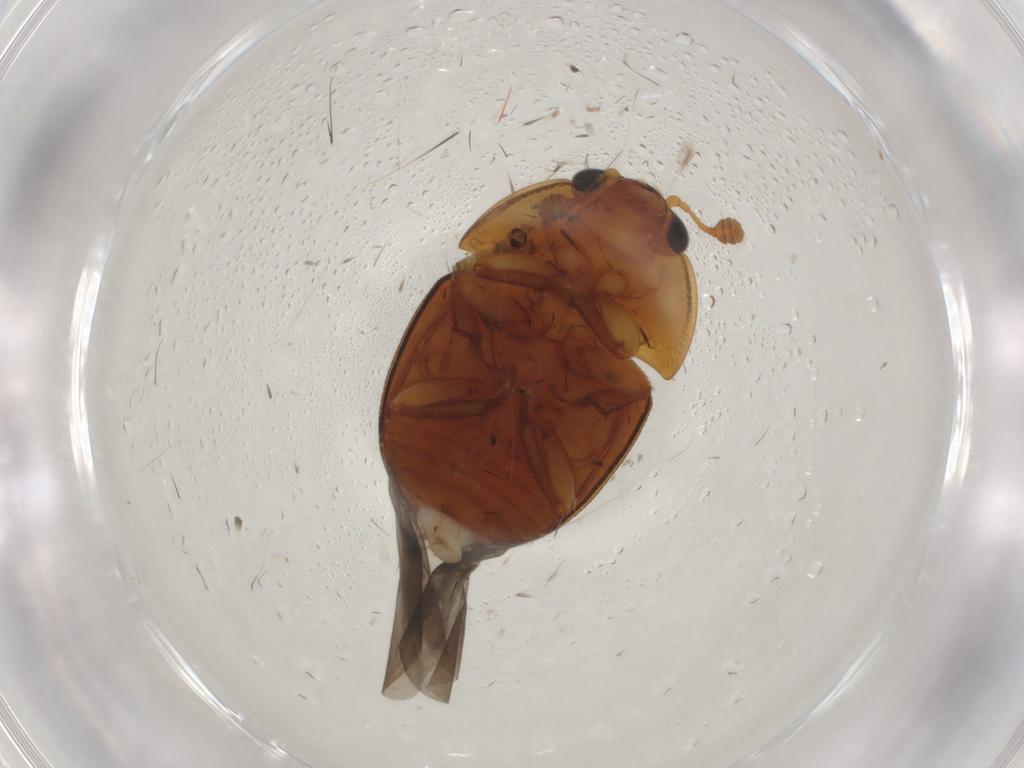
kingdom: Animalia
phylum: Arthropoda
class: Insecta
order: Coleoptera
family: Nitidulidae
